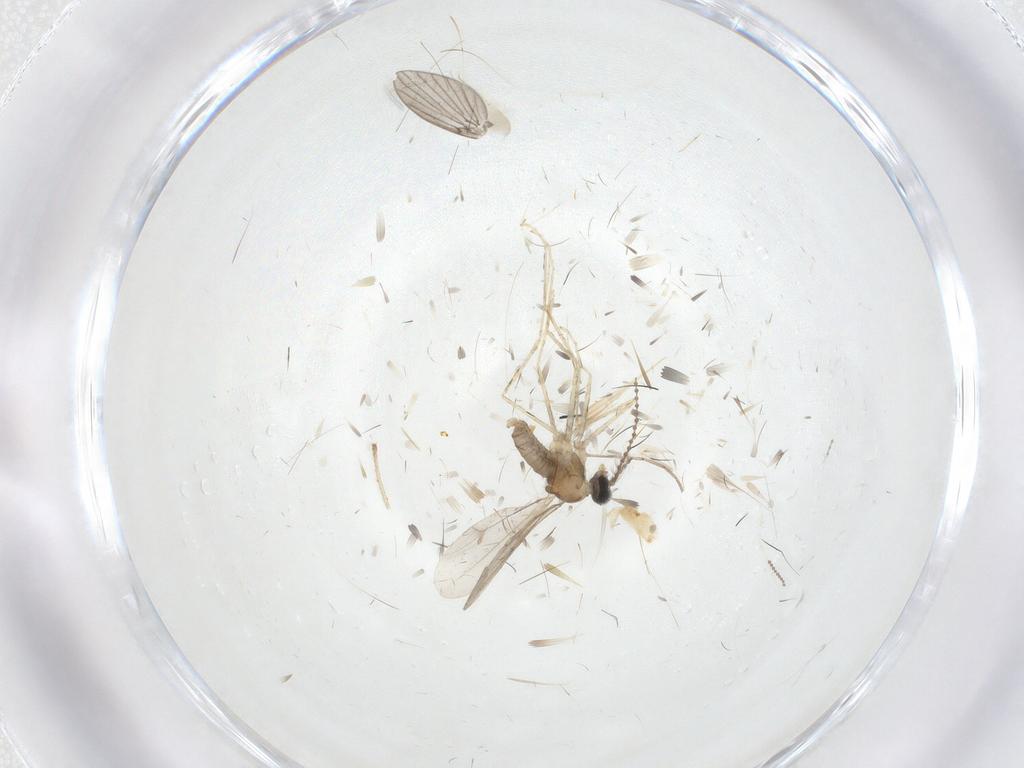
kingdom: Animalia
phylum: Arthropoda
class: Insecta
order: Diptera
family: Cecidomyiidae
